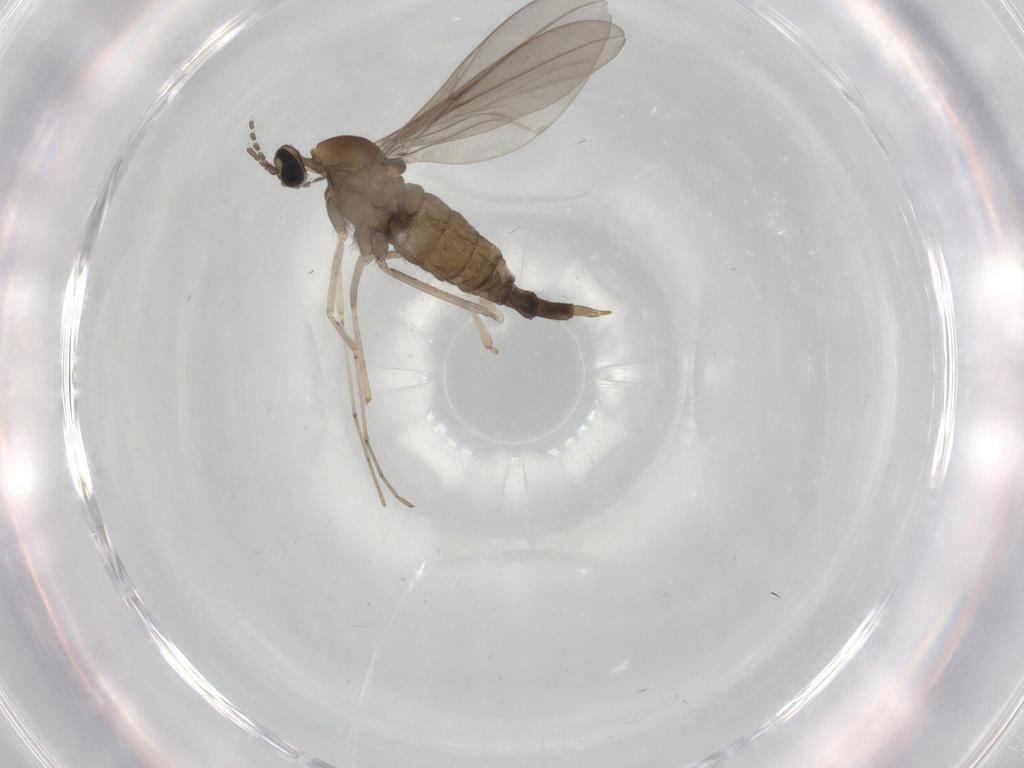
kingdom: Animalia
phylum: Arthropoda
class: Insecta
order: Diptera
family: Cecidomyiidae
